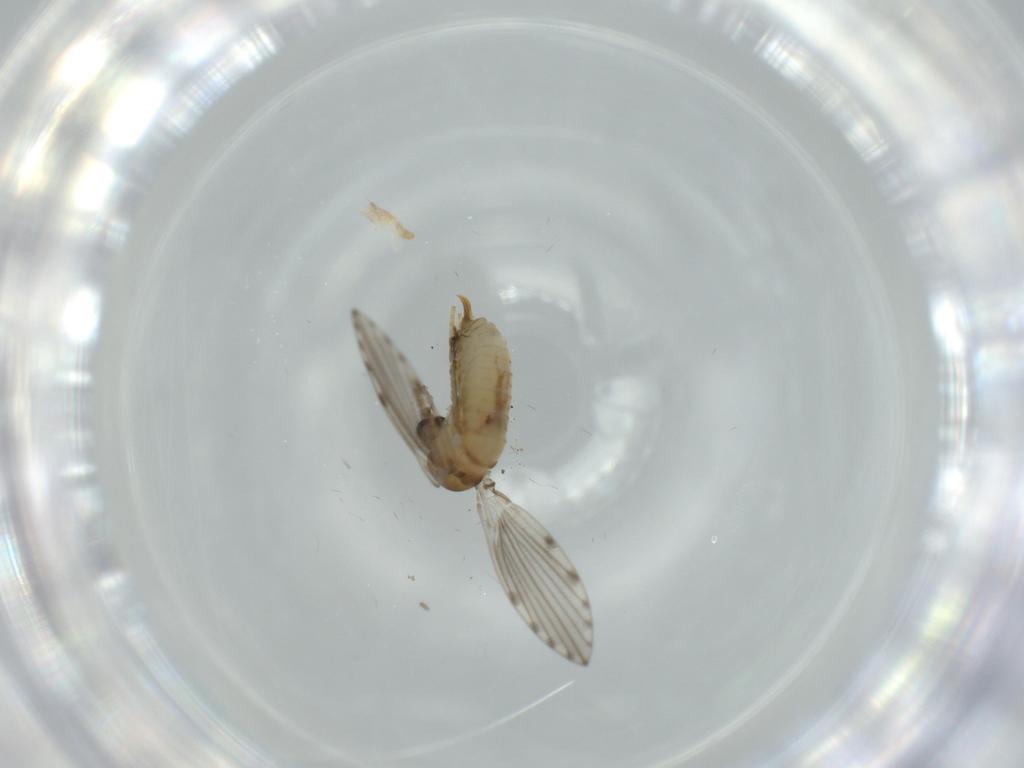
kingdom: Animalia
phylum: Arthropoda
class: Insecta
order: Diptera
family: Psychodidae
